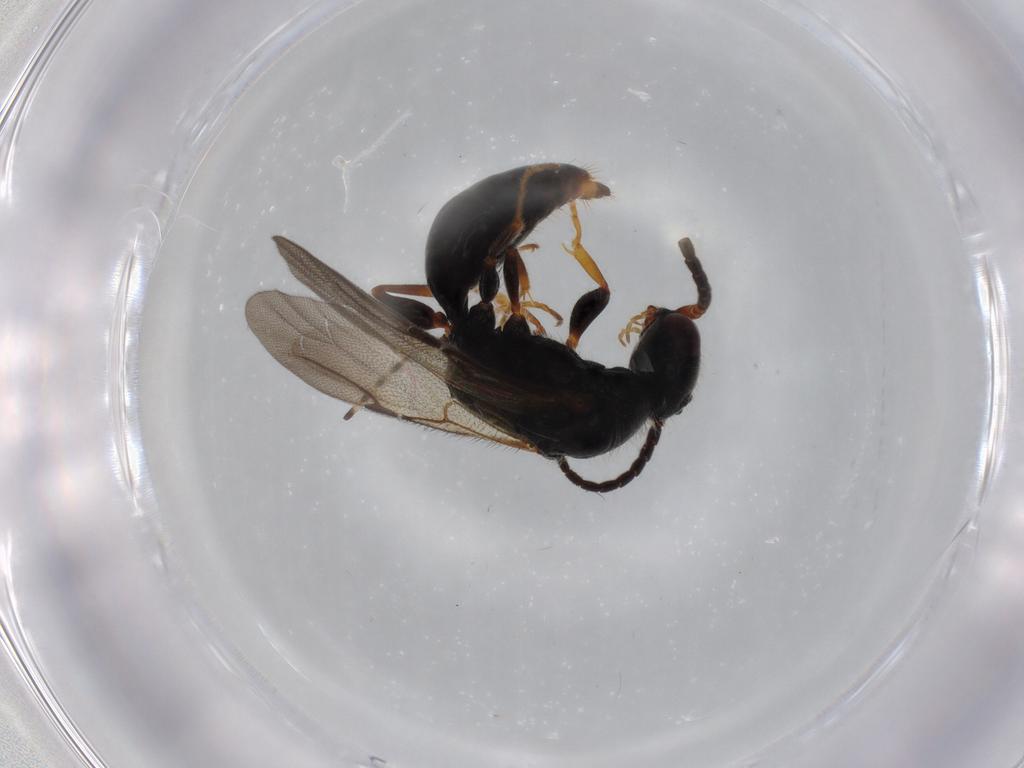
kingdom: Animalia
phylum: Arthropoda
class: Insecta
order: Hymenoptera
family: Bethylidae
